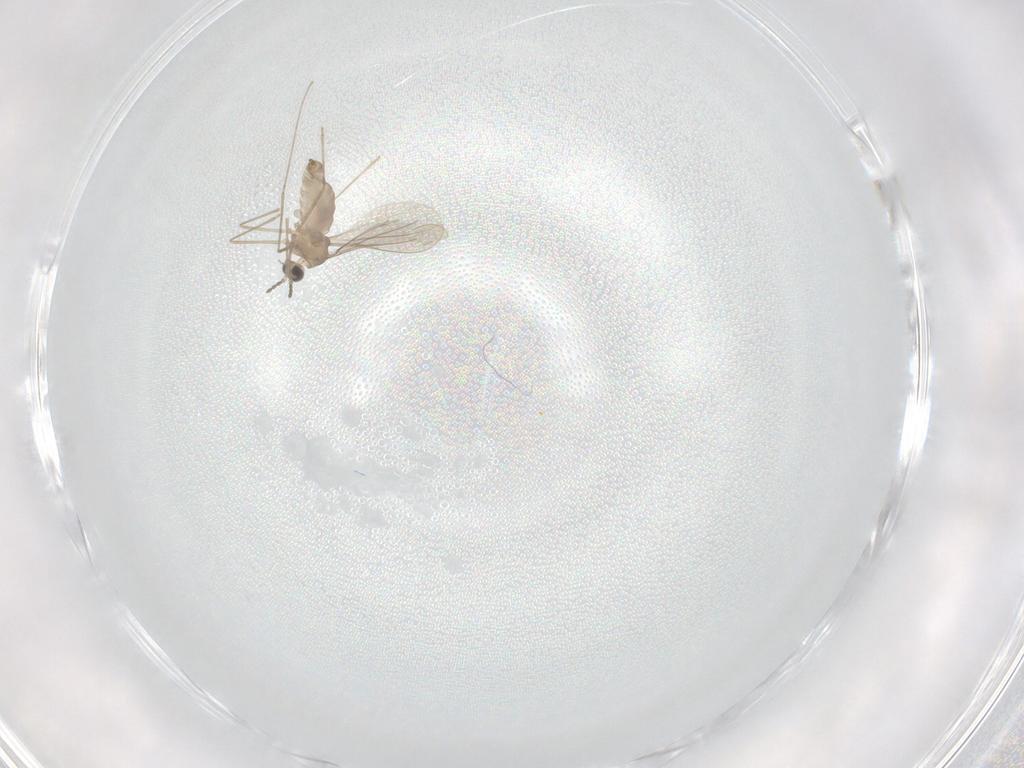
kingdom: Animalia
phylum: Arthropoda
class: Insecta
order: Diptera
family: Dolichopodidae
